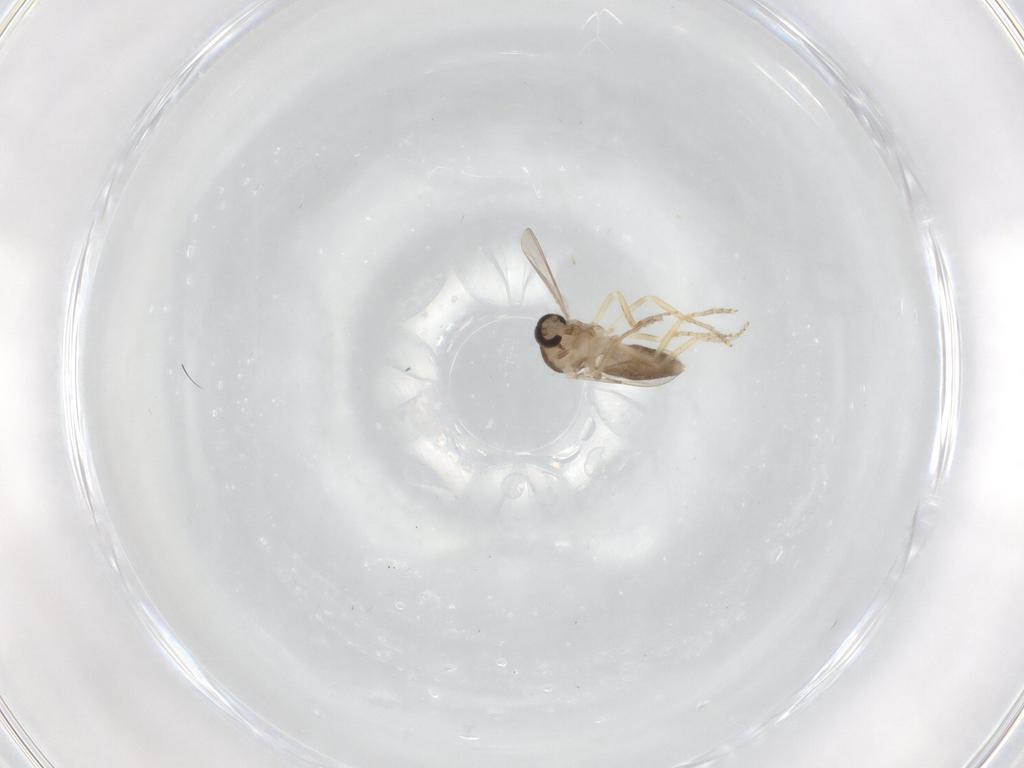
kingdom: Animalia
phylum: Arthropoda
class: Insecta
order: Diptera
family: Ceratopogonidae
